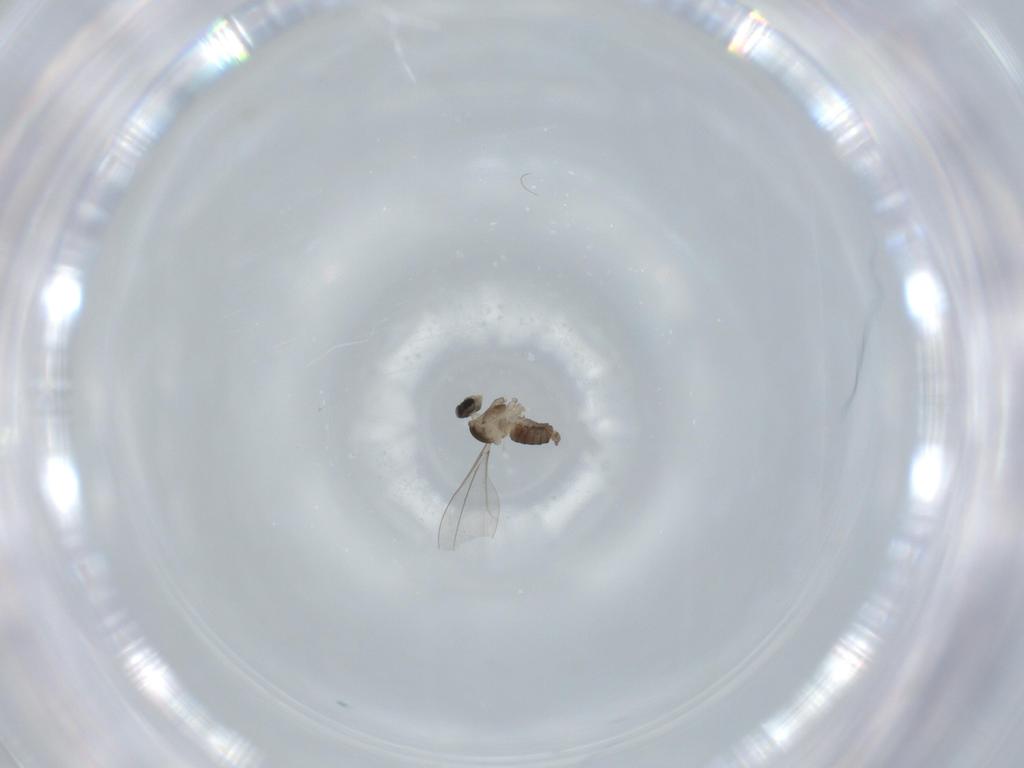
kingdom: Animalia
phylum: Arthropoda
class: Insecta
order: Diptera
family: Cecidomyiidae
